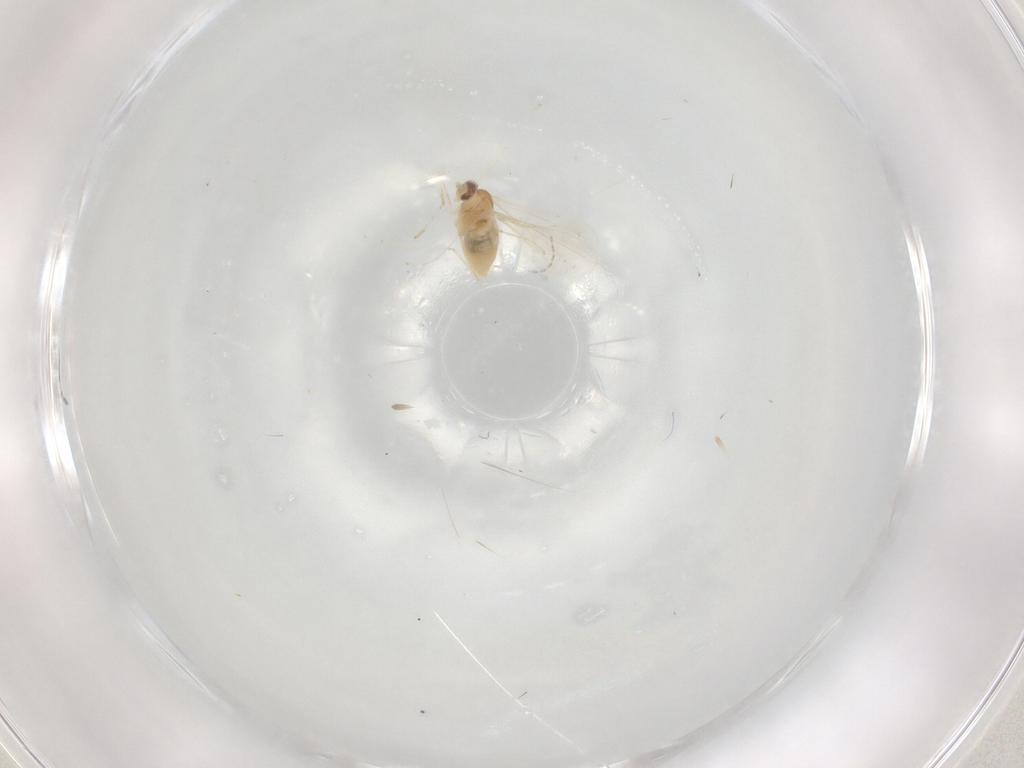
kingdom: Animalia
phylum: Arthropoda
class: Insecta
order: Diptera
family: Cecidomyiidae
